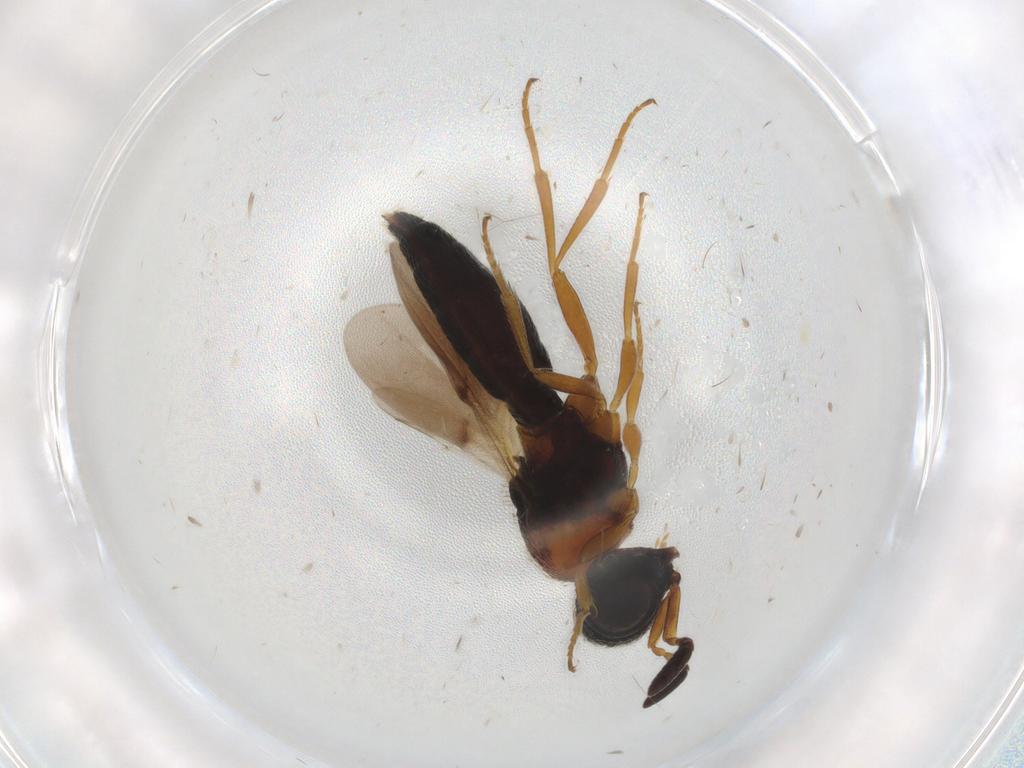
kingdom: Animalia
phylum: Arthropoda
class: Insecta
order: Hymenoptera
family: Scelionidae
